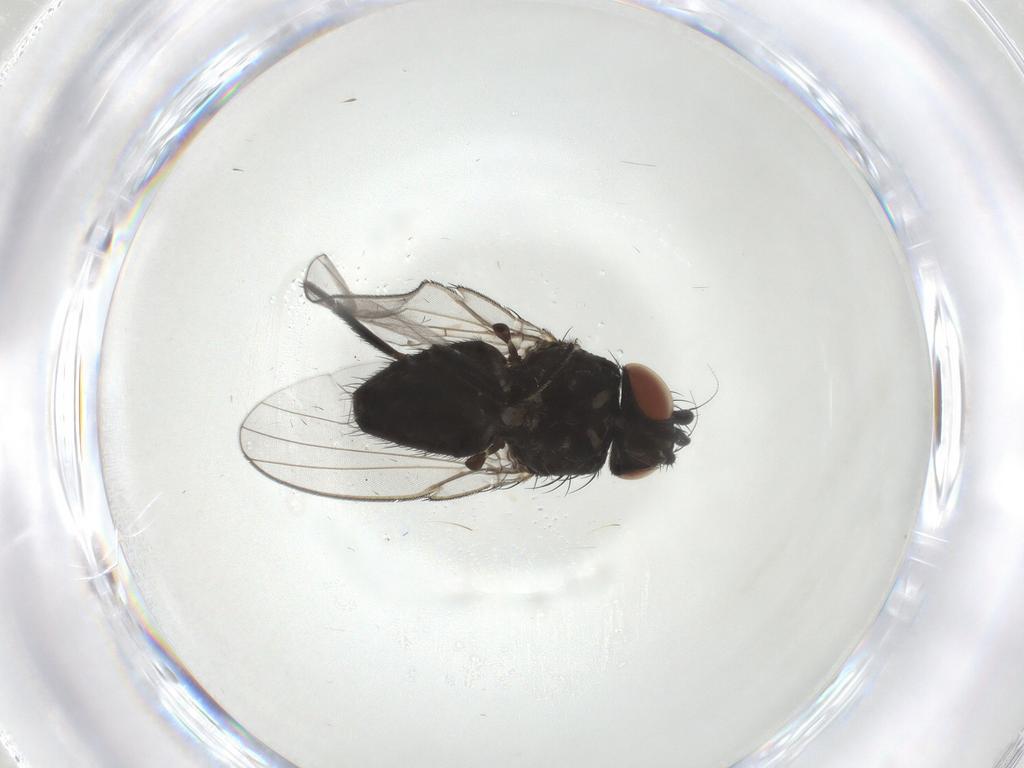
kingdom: Animalia
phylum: Arthropoda
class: Insecta
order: Diptera
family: Milichiidae
